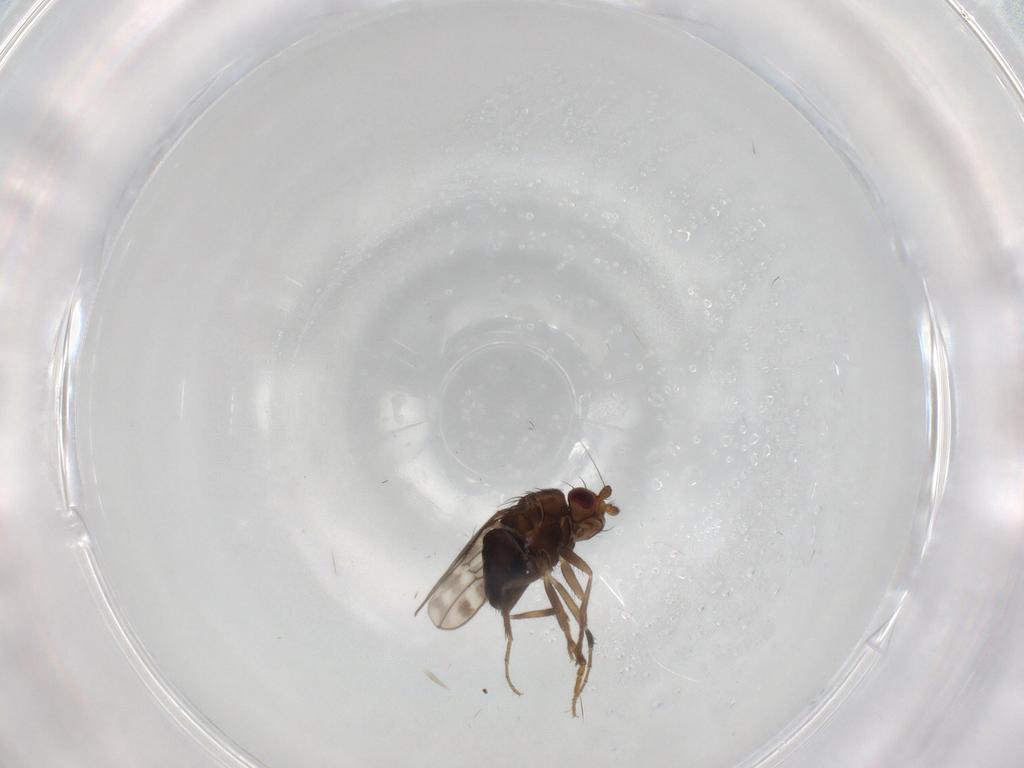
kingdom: Animalia
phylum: Arthropoda
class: Insecta
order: Diptera
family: Sphaeroceridae
